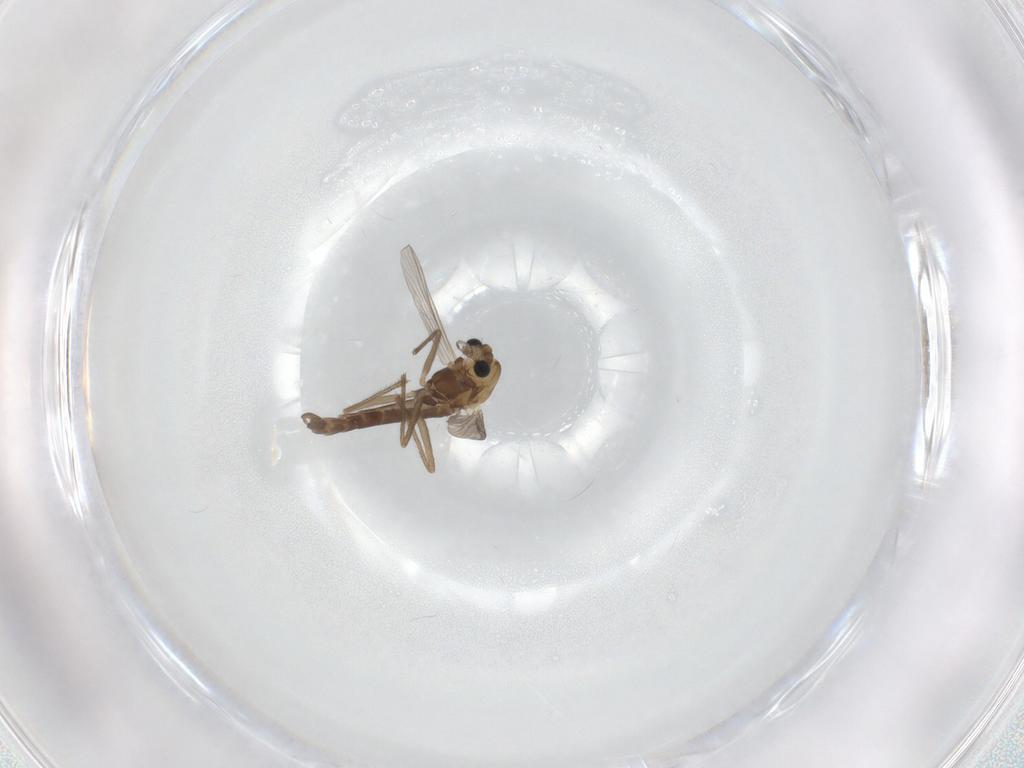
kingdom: Animalia
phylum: Arthropoda
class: Insecta
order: Diptera
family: Chironomidae
